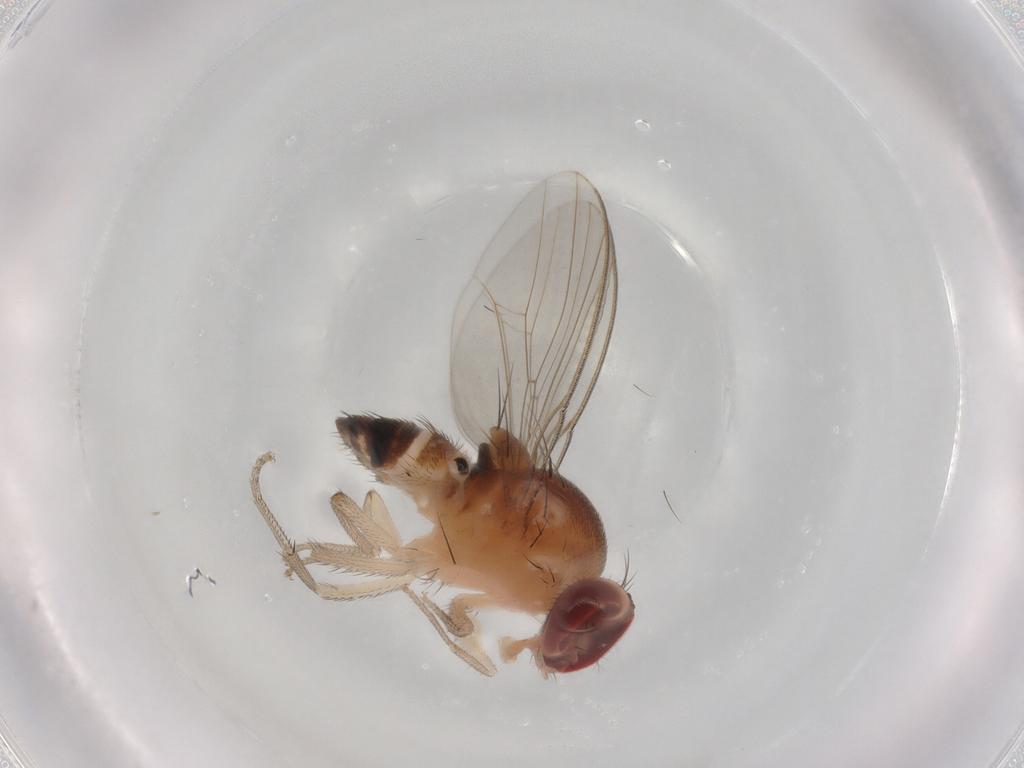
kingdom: Animalia
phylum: Arthropoda
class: Insecta
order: Diptera
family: Drosophilidae
